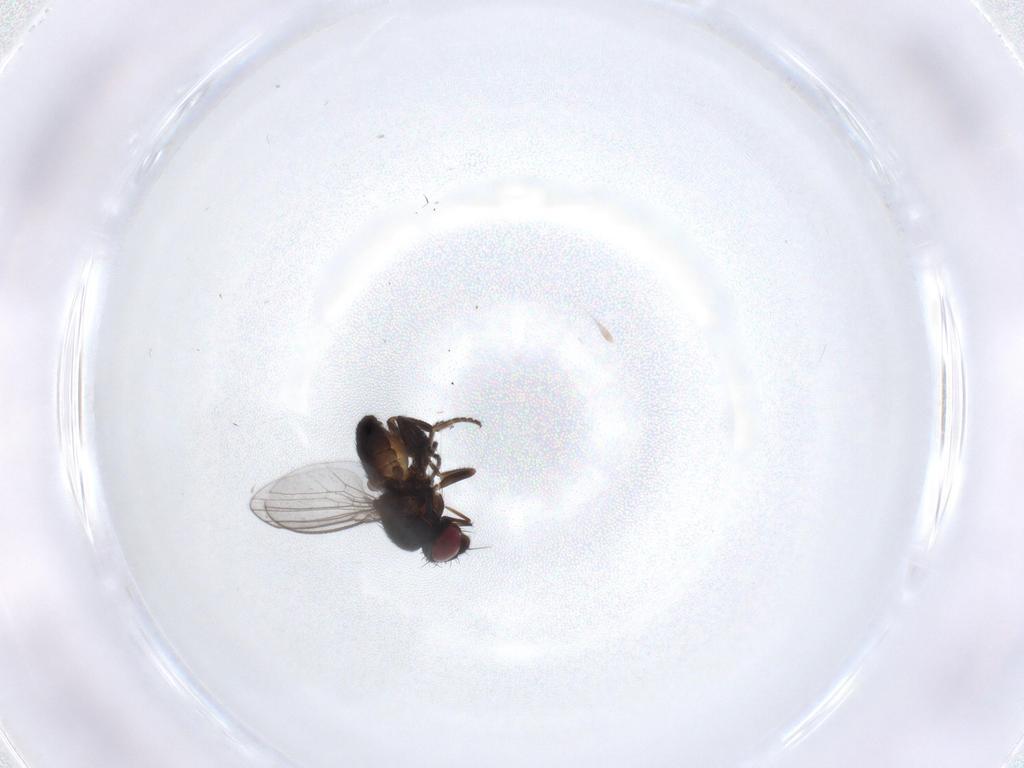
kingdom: Animalia
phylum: Arthropoda
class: Insecta
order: Diptera
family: Milichiidae
